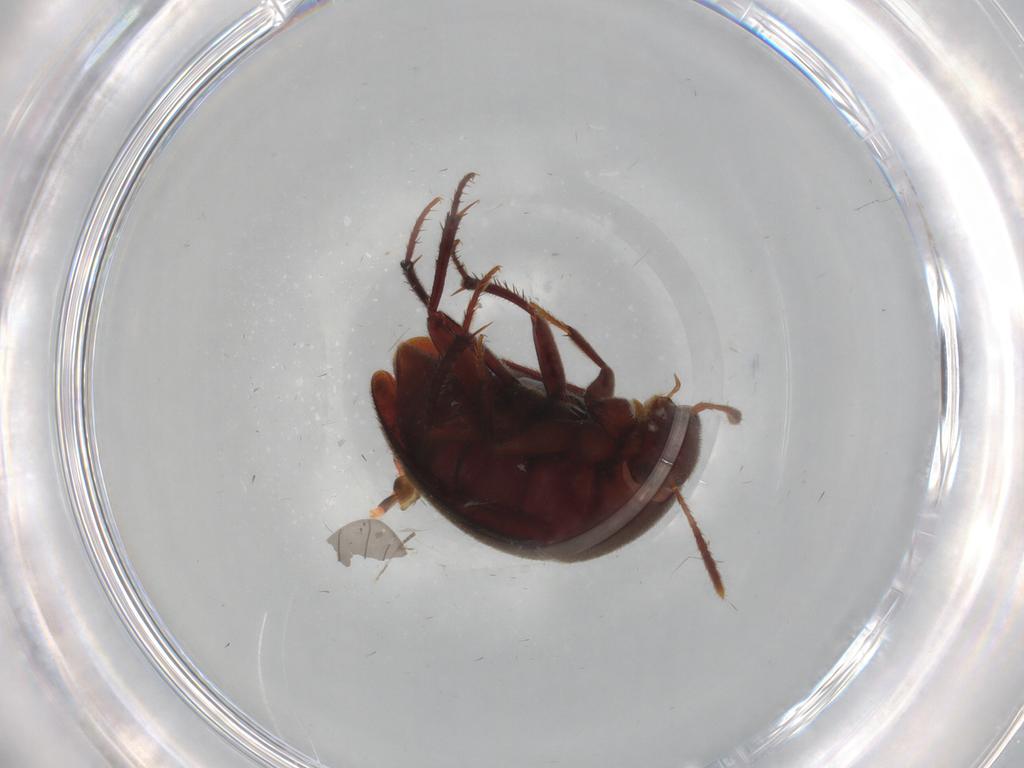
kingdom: Animalia
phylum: Arthropoda
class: Insecta
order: Coleoptera
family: Leiodidae
